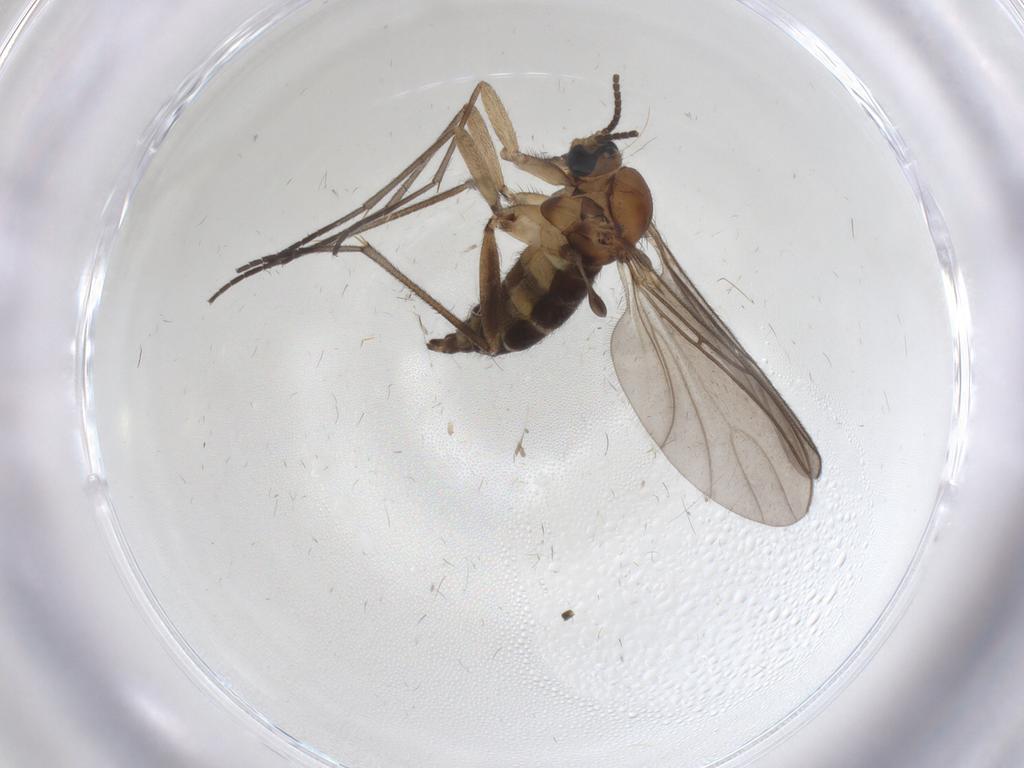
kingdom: Animalia
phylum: Arthropoda
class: Insecta
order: Diptera
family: Sciaridae
